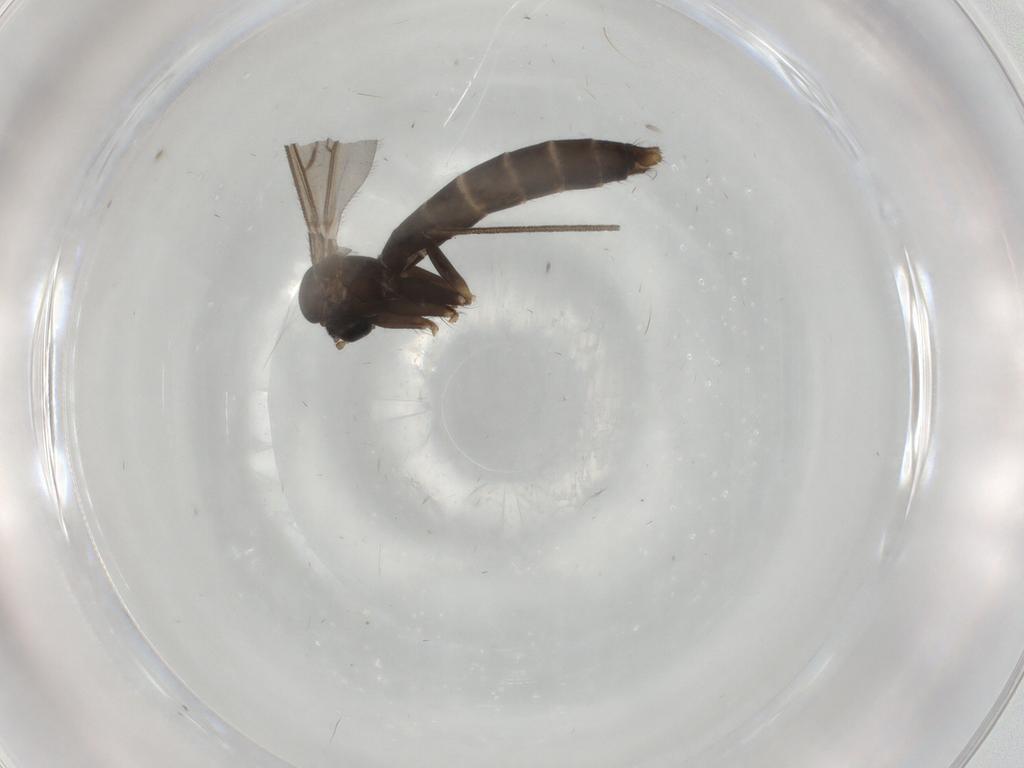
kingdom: Animalia
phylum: Arthropoda
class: Insecta
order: Diptera
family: Ditomyiidae
